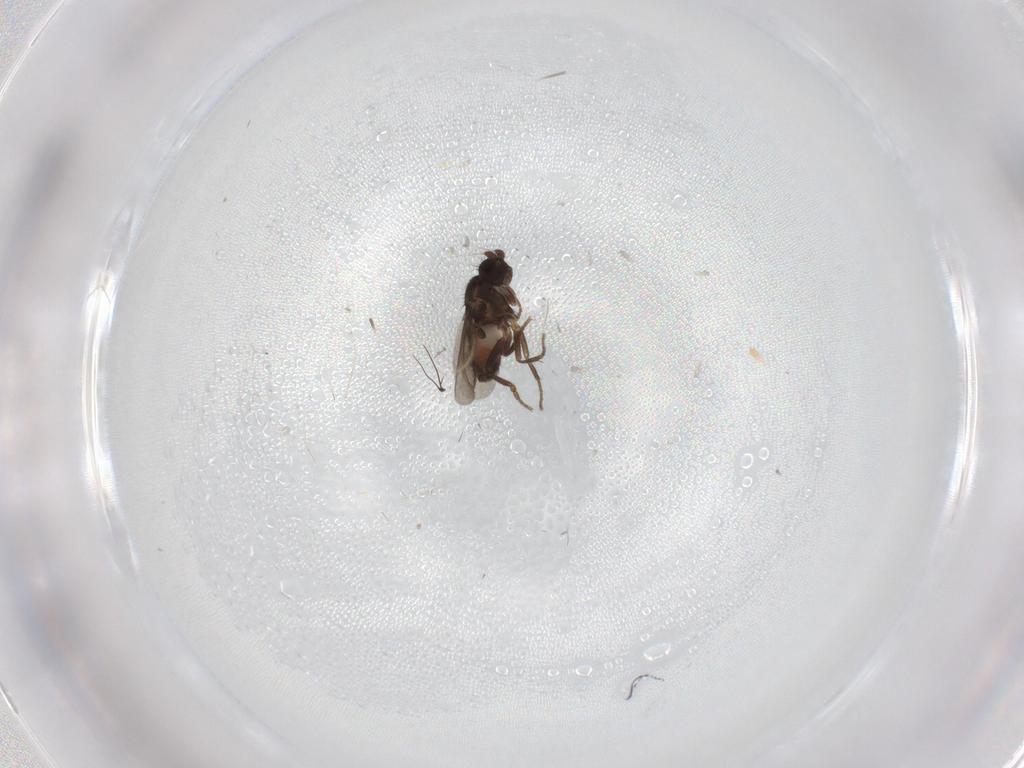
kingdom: Animalia
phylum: Arthropoda
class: Insecta
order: Diptera
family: Sphaeroceridae
